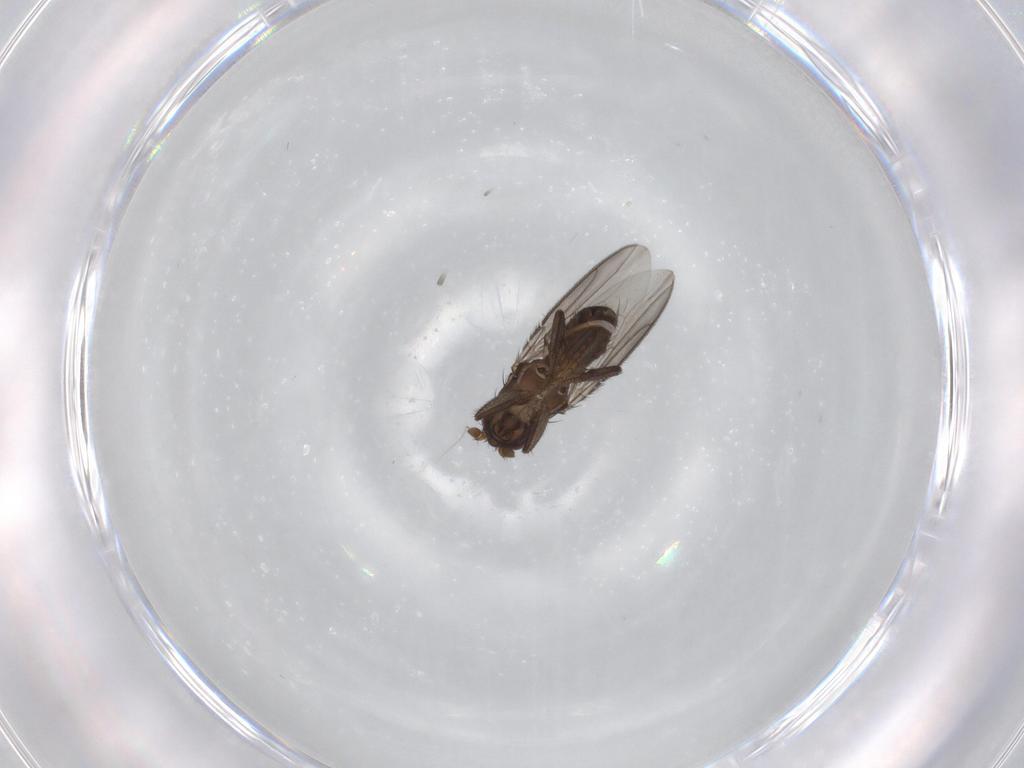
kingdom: Animalia
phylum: Arthropoda
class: Insecta
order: Diptera
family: Sphaeroceridae
